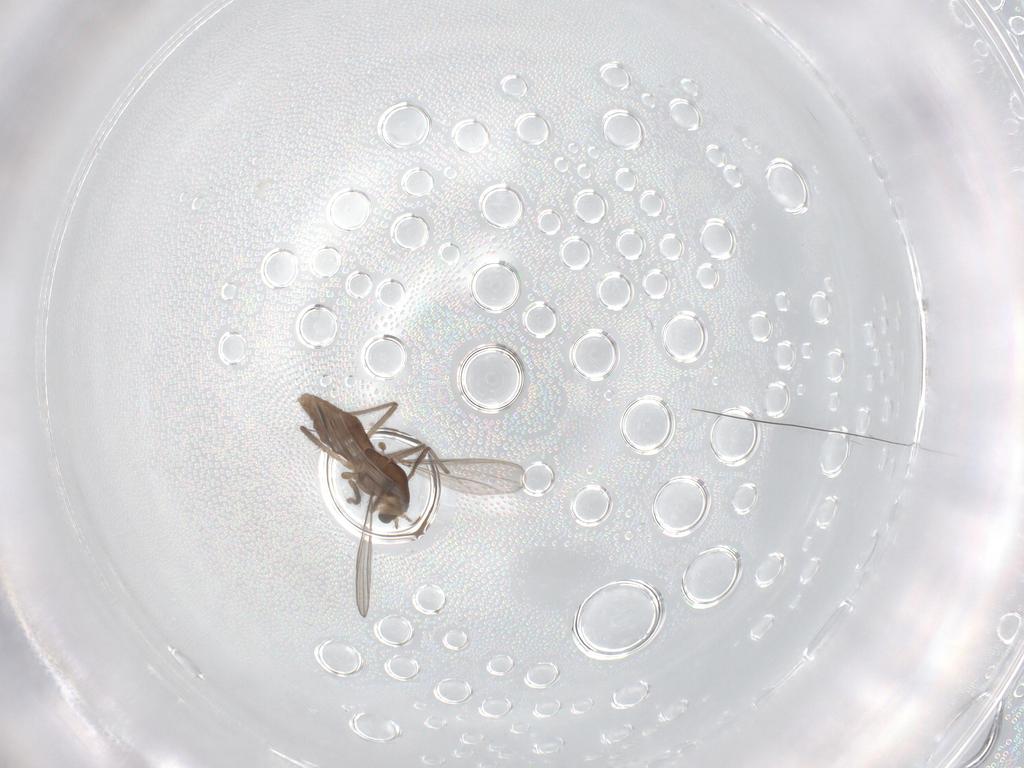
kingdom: Animalia
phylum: Arthropoda
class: Insecta
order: Diptera
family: Chironomidae
